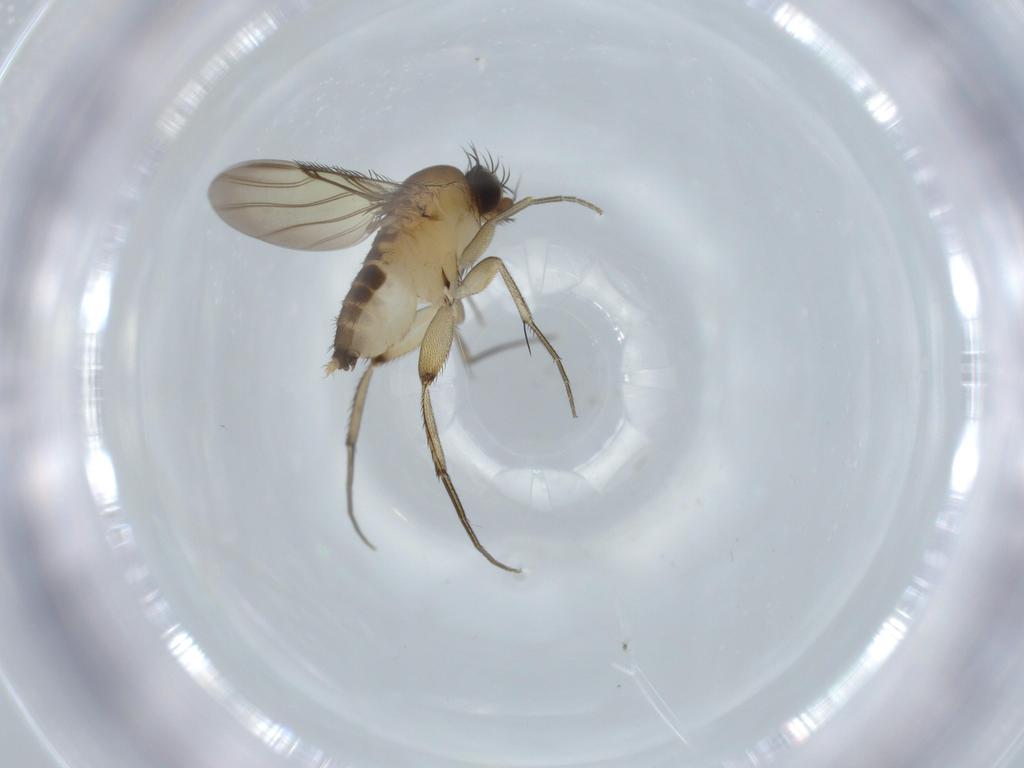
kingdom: Animalia
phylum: Arthropoda
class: Insecta
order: Diptera
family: Phoridae
